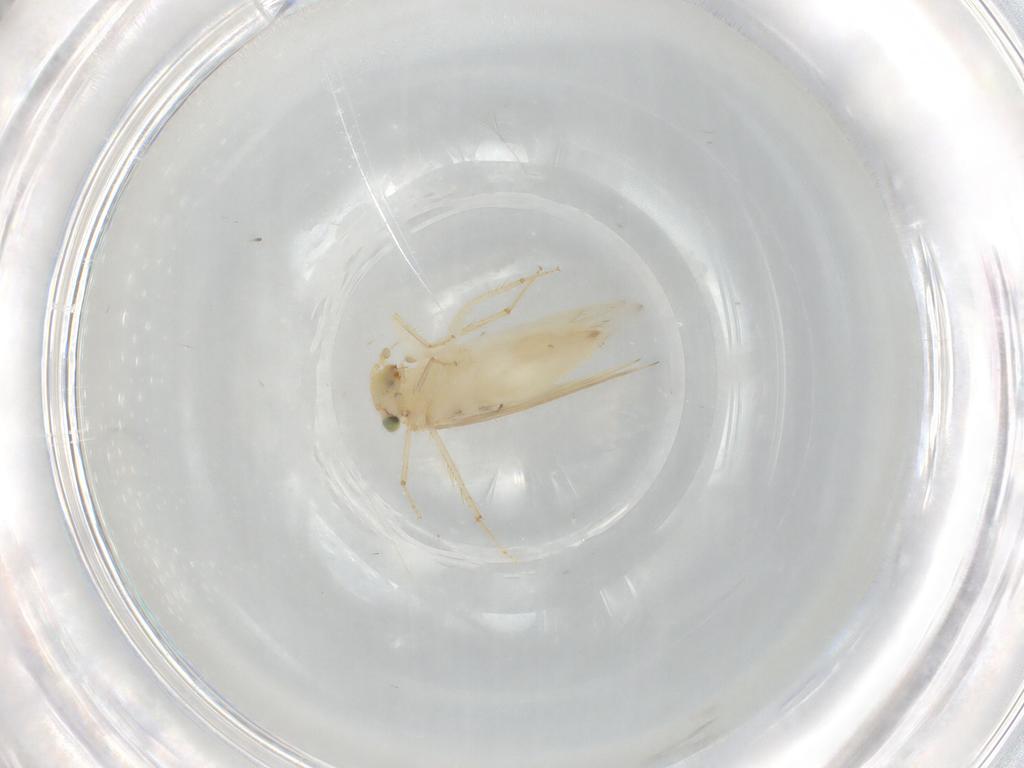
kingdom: Animalia
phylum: Arthropoda
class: Insecta
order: Psocodea
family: Lepidopsocidae
